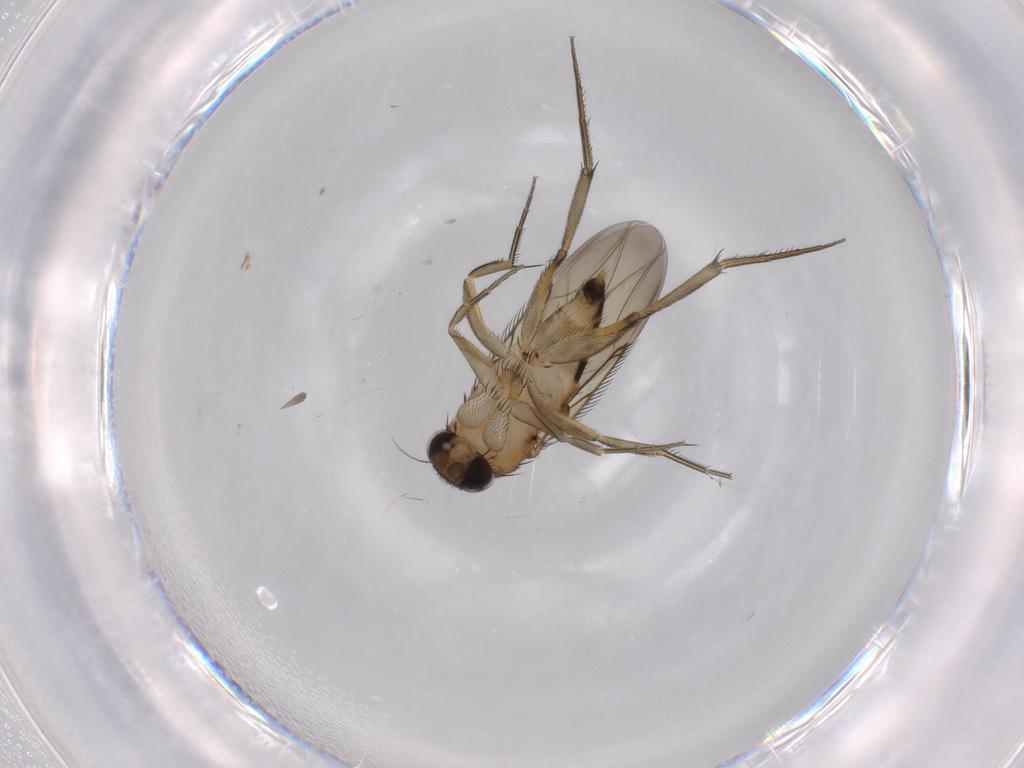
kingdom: Animalia
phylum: Arthropoda
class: Insecta
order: Diptera
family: Phoridae
